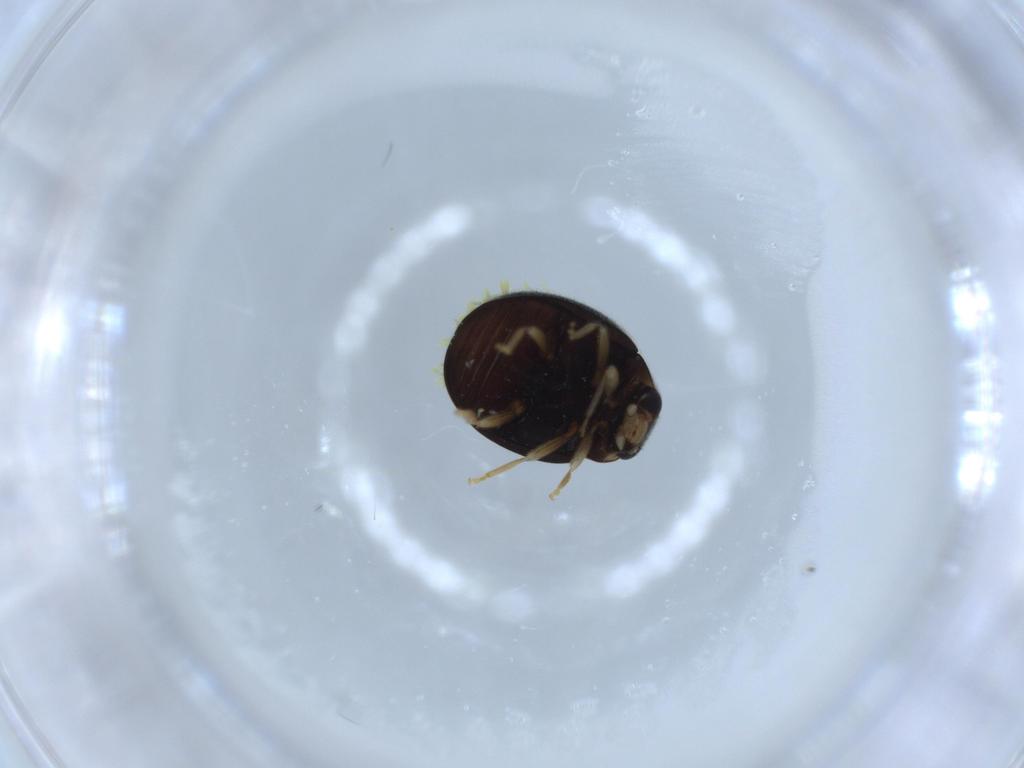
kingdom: Animalia
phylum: Arthropoda
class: Insecta
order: Coleoptera
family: Coccinellidae
